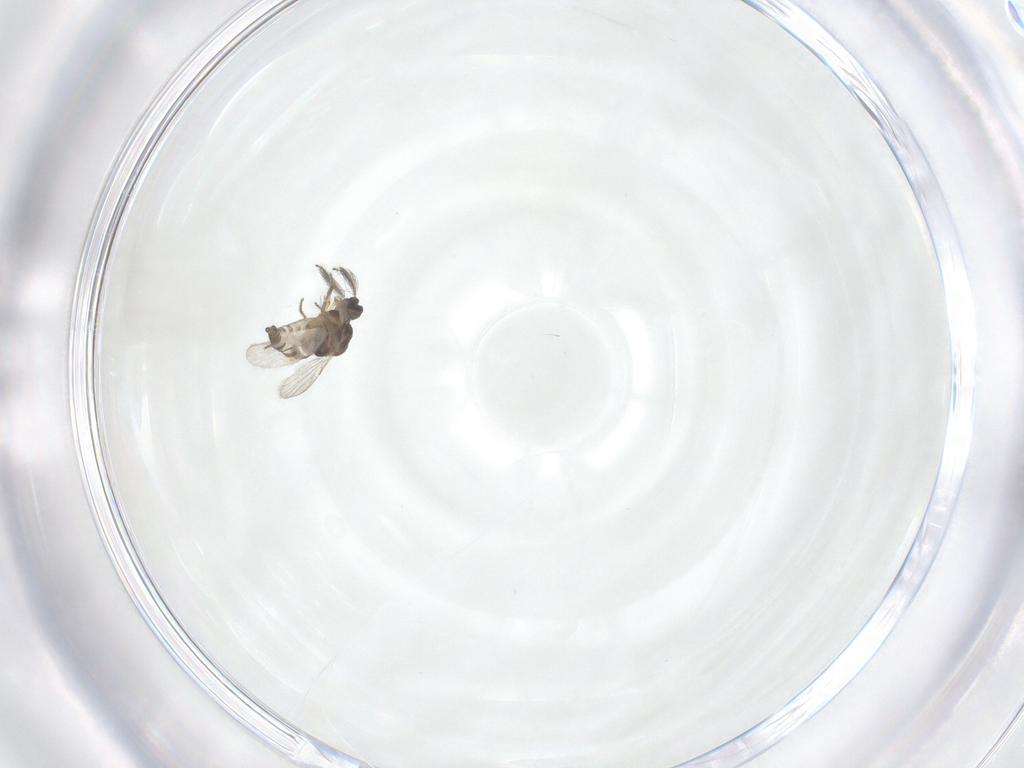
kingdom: Animalia
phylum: Arthropoda
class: Insecta
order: Diptera
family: Ceratopogonidae
